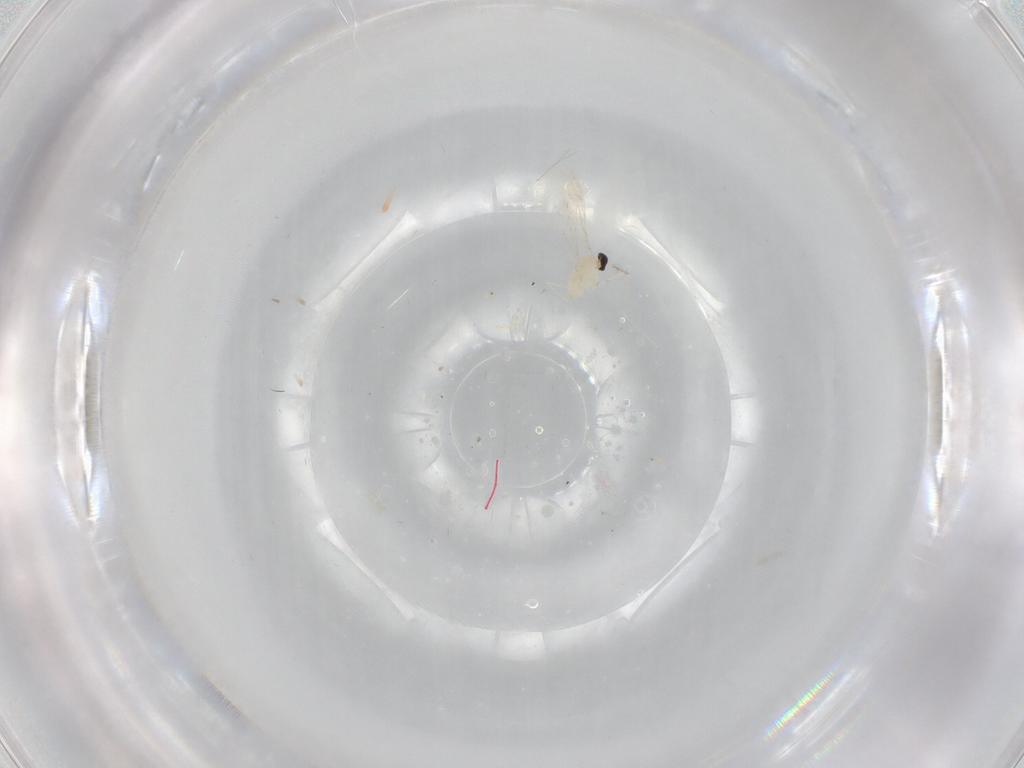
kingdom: Animalia
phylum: Arthropoda
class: Insecta
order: Diptera
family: Cecidomyiidae
